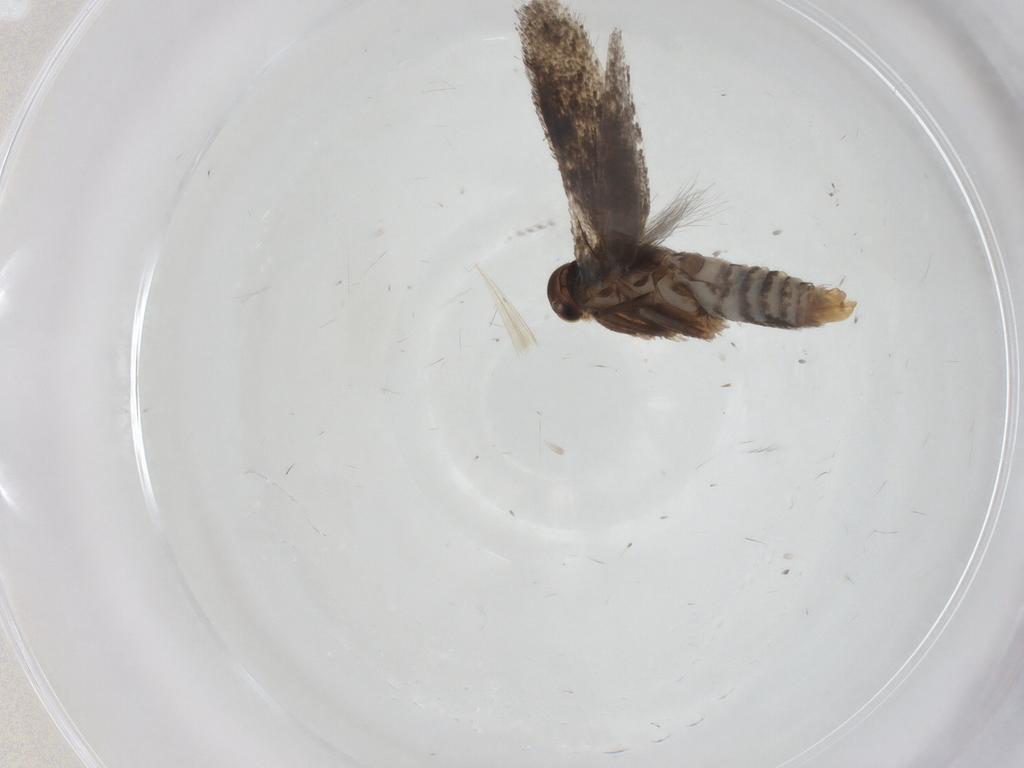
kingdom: Animalia
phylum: Arthropoda
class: Insecta
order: Lepidoptera
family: Elachistidae
